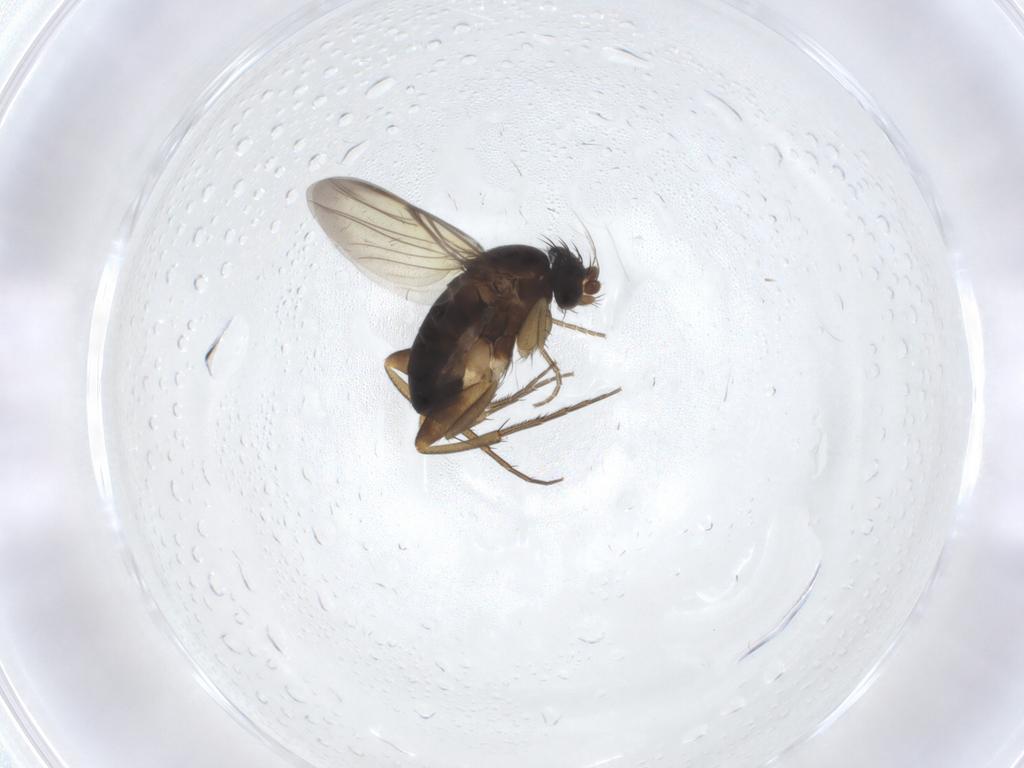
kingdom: Animalia
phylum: Arthropoda
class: Insecta
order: Diptera
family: Phoridae
